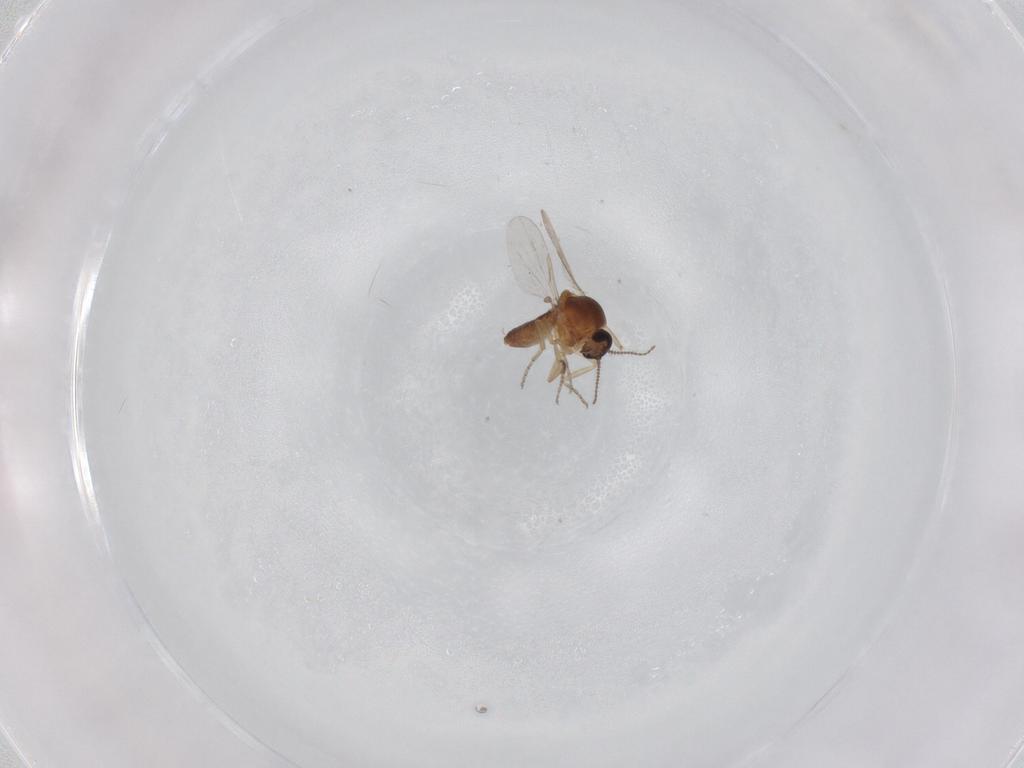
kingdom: Animalia
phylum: Arthropoda
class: Insecta
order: Diptera
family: Ceratopogonidae
